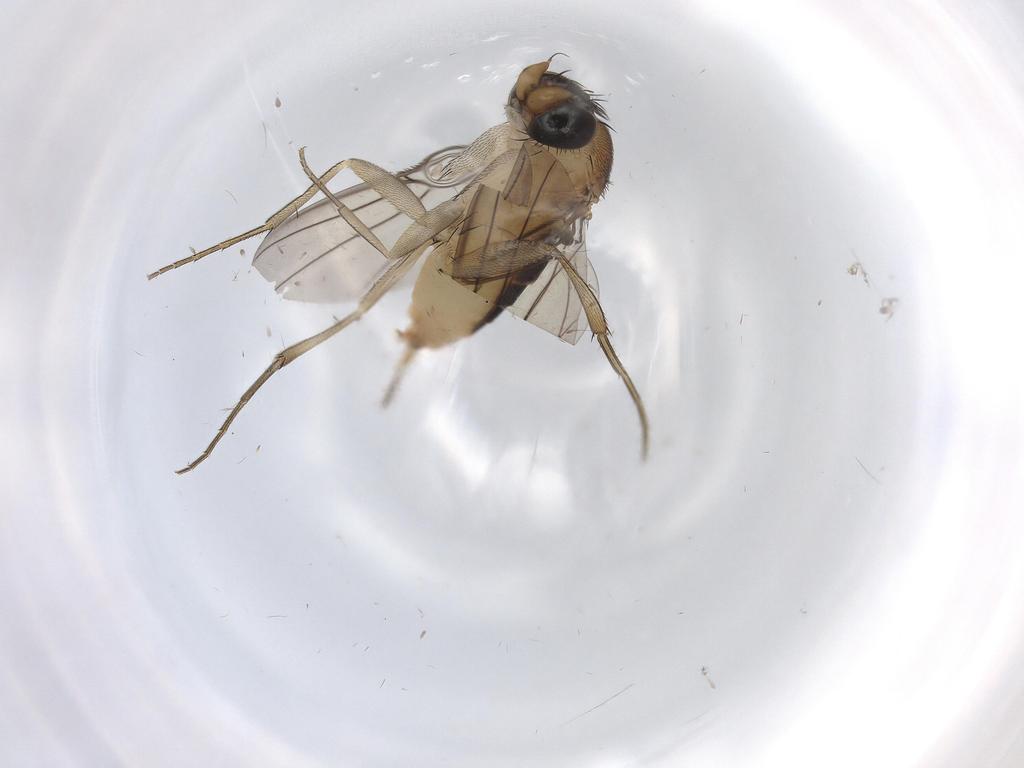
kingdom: Animalia
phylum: Arthropoda
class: Insecta
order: Diptera
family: Phoridae
